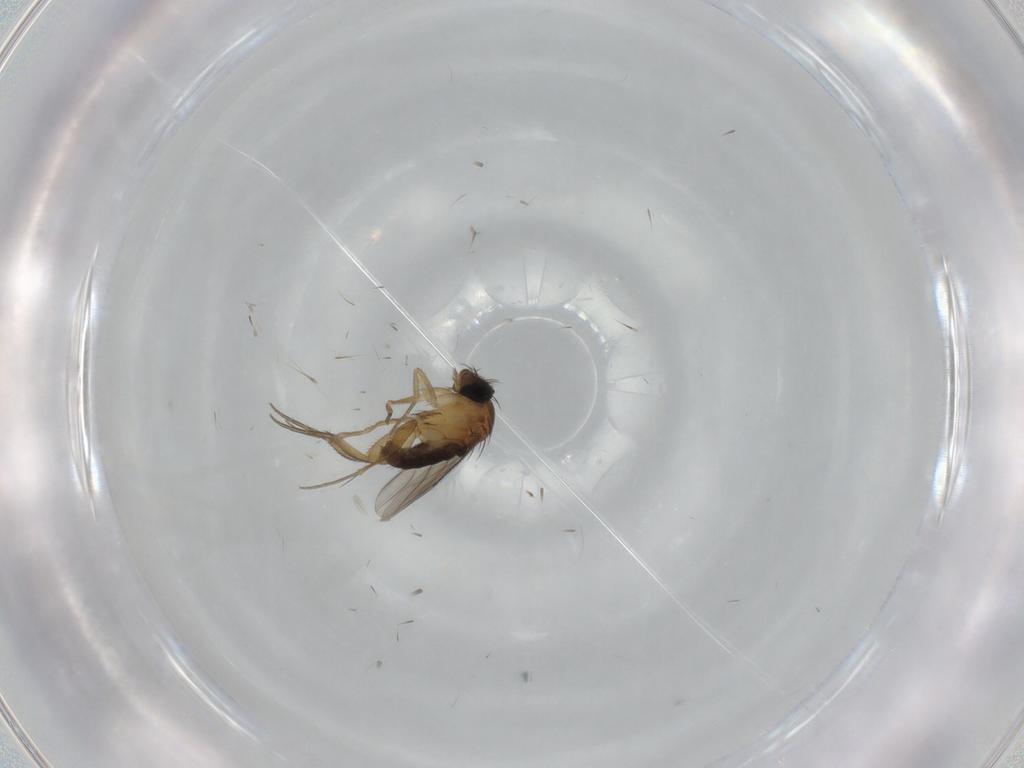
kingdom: Animalia
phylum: Arthropoda
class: Insecta
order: Diptera
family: Phoridae
